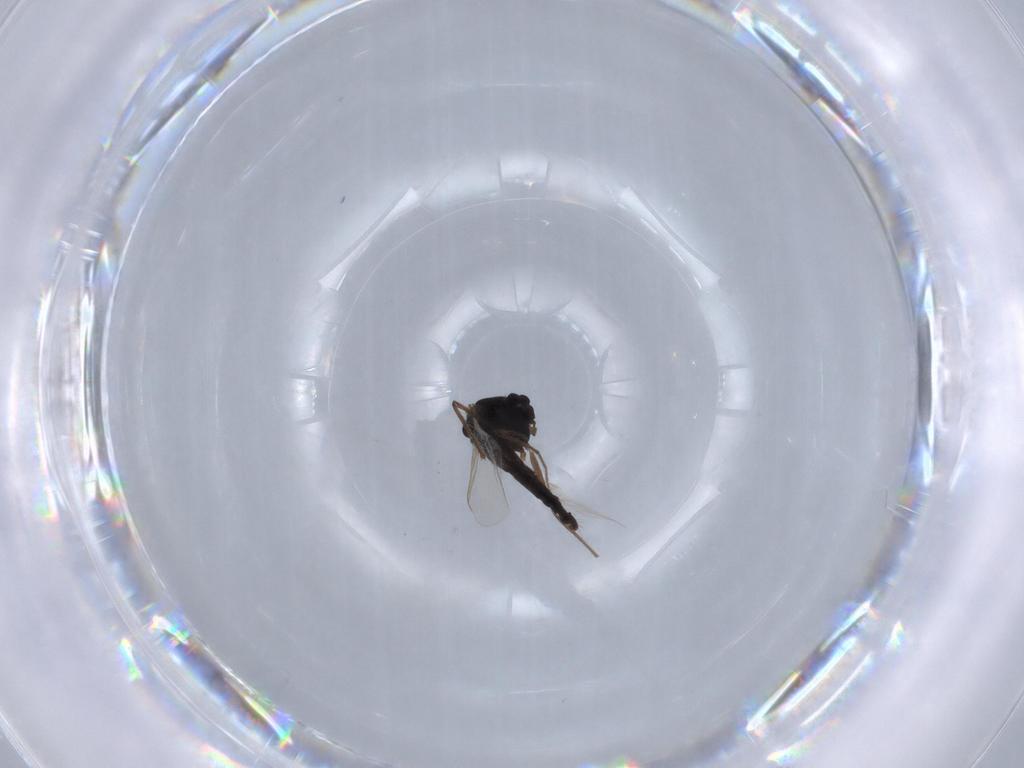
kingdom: Animalia
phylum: Arthropoda
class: Insecta
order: Diptera
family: Chironomidae
